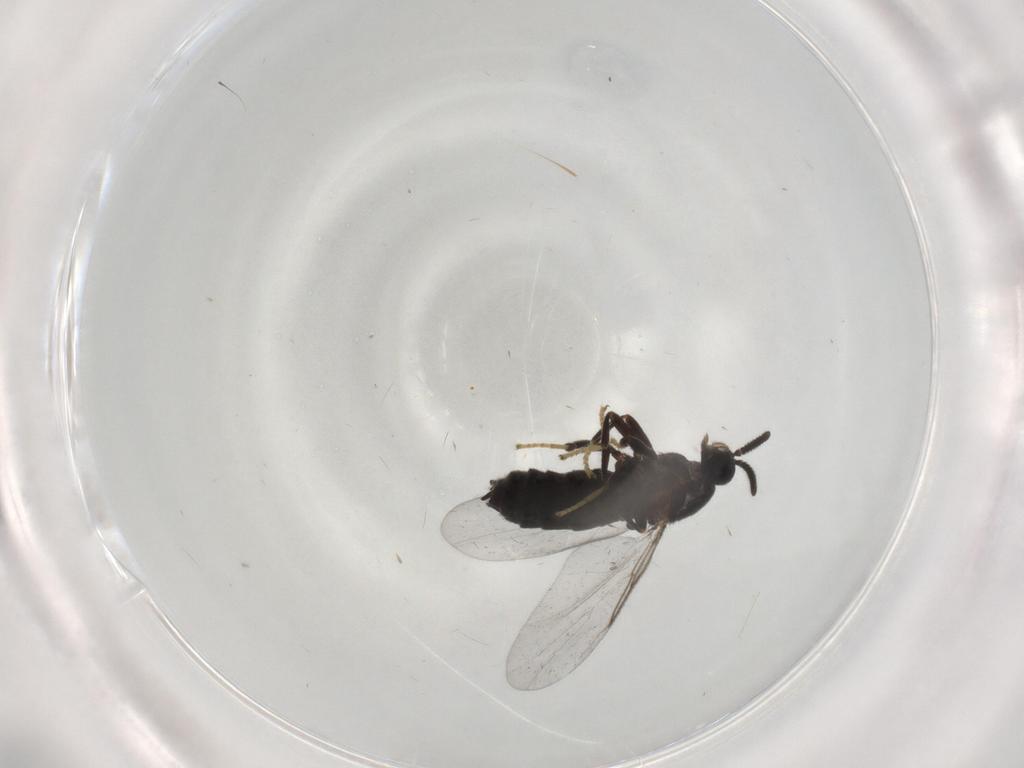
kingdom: Animalia
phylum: Arthropoda
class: Insecta
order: Diptera
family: Scatopsidae
